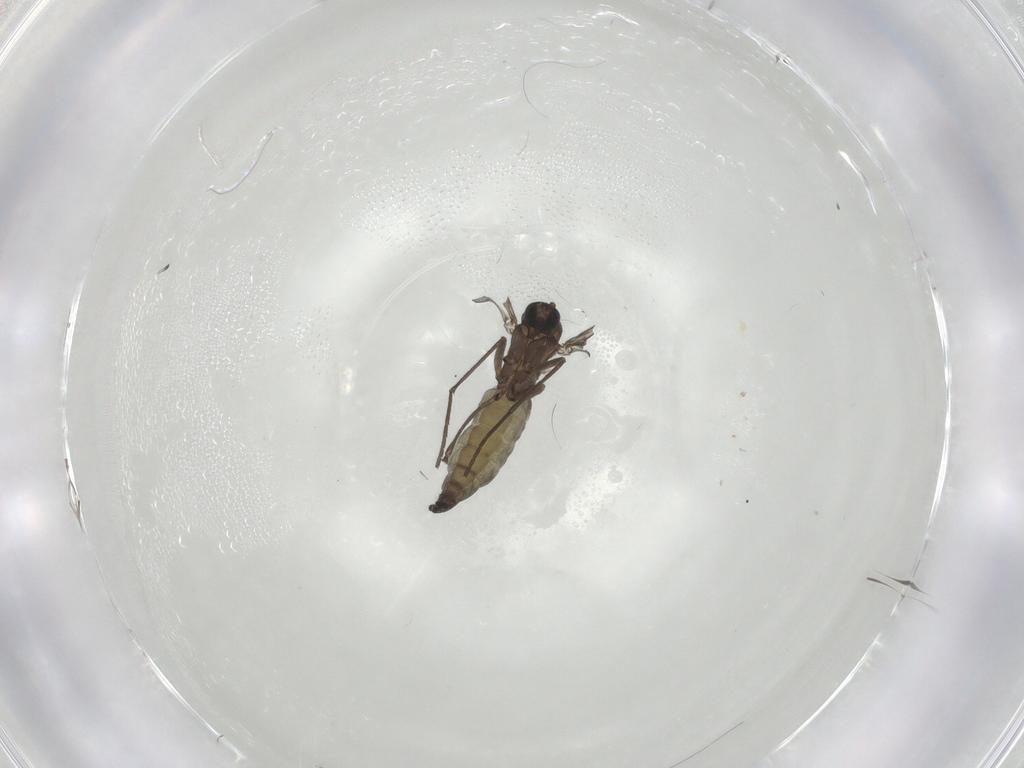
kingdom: Animalia
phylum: Arthropoda
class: Insecta
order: Diptera
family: Sciaridae
